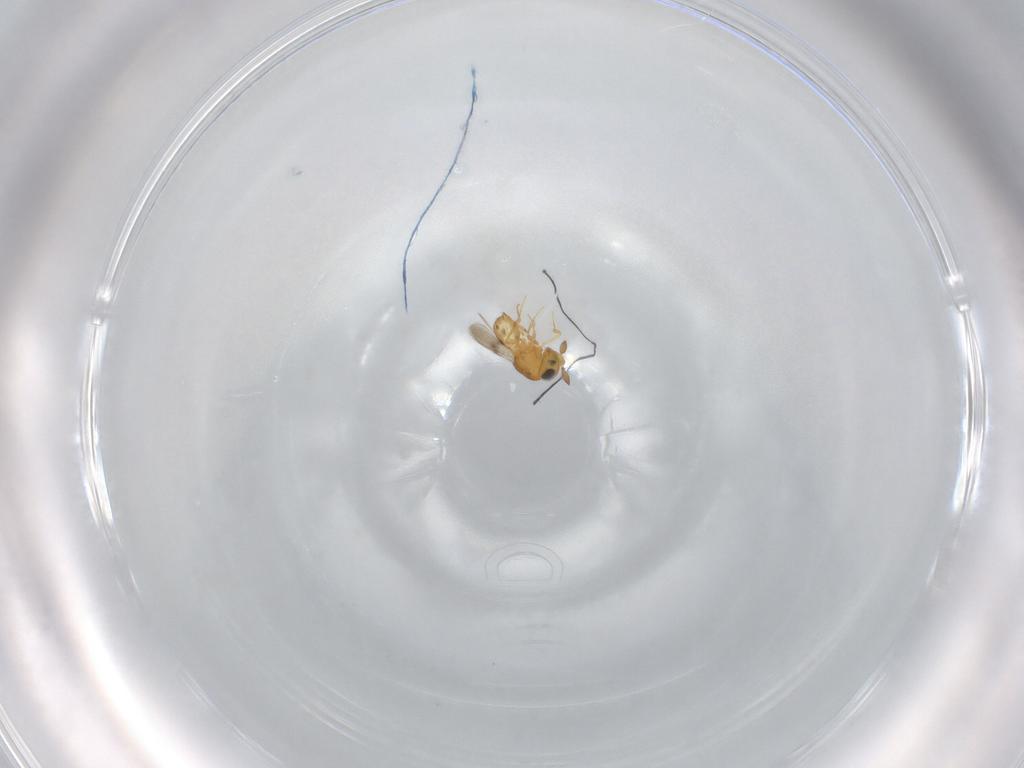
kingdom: Animalia
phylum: Arthropoda
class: Insecta
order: Hymenoptera
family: Scelionidae
